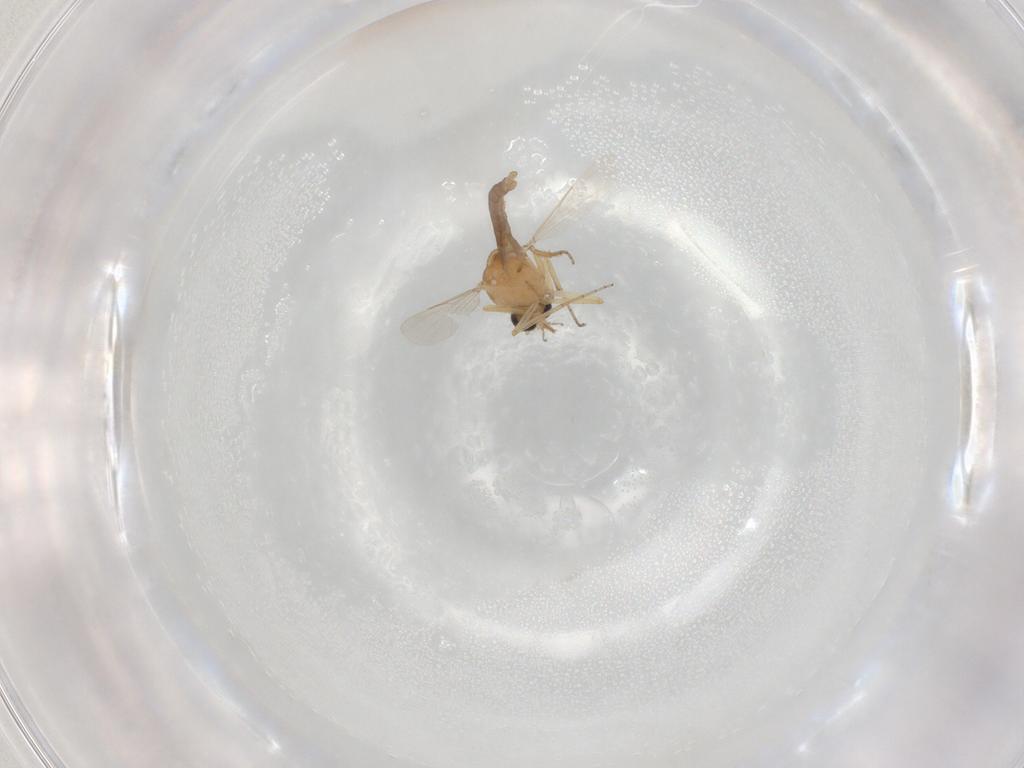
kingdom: Animalia
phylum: Arthropoda
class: Insecta
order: Diptera
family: Ceratopogonidae
